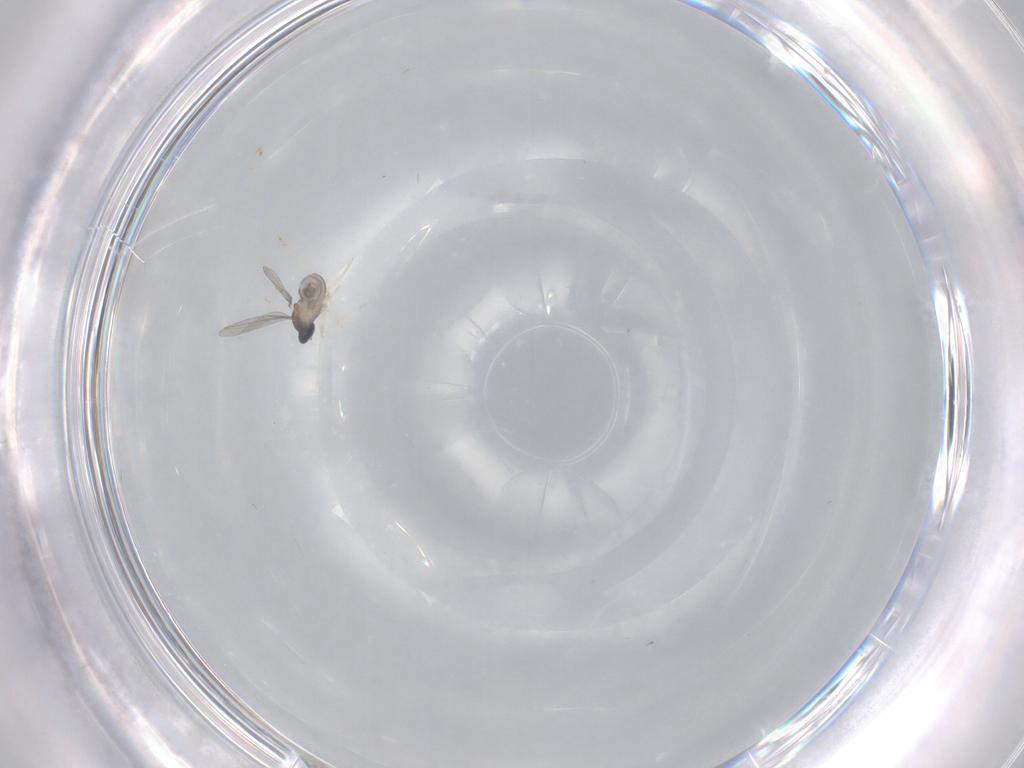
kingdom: Animalia
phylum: Arthropoda
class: Insecta
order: Diptera
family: Cecidomyiidae
